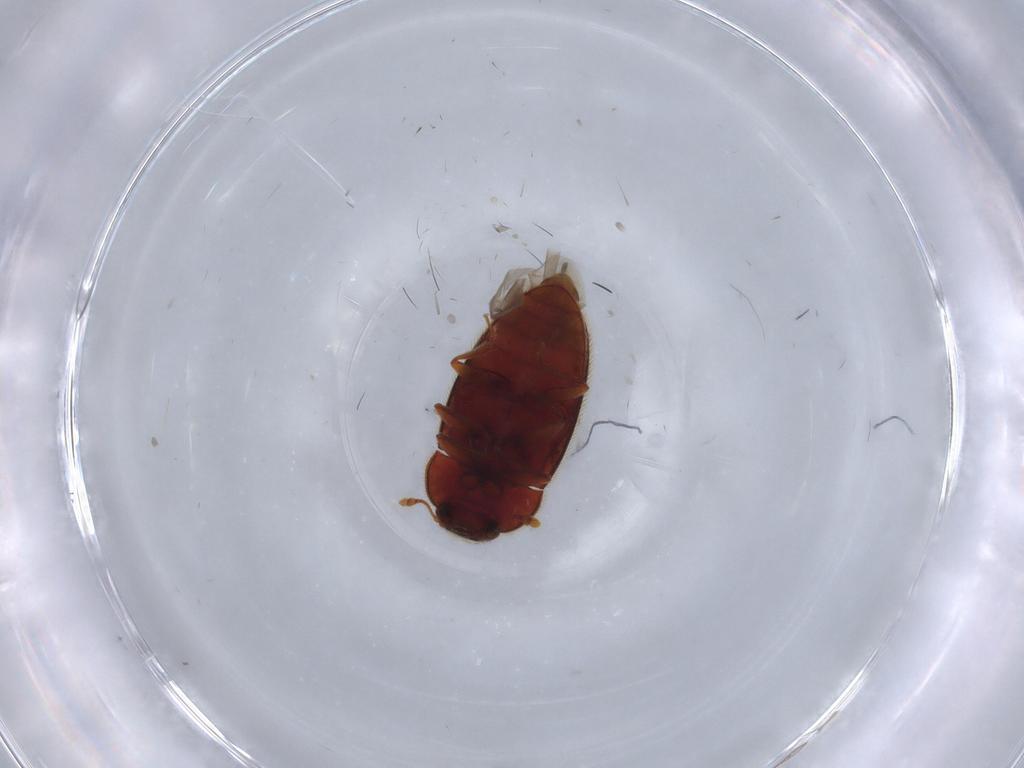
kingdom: Animalia
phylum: Arthropoda
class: Insecta
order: Coleoptera
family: Biphyllidae
